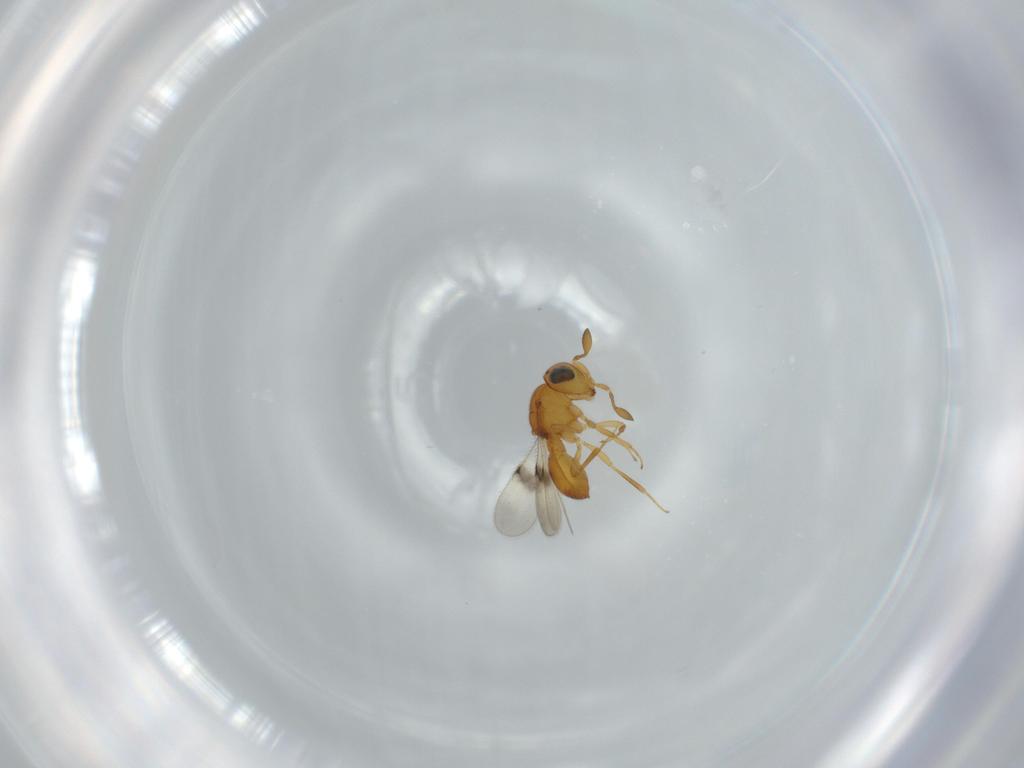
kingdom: Animalia
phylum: Arthropoda
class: Insecta
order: Hymenoptera
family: Scelionidae
